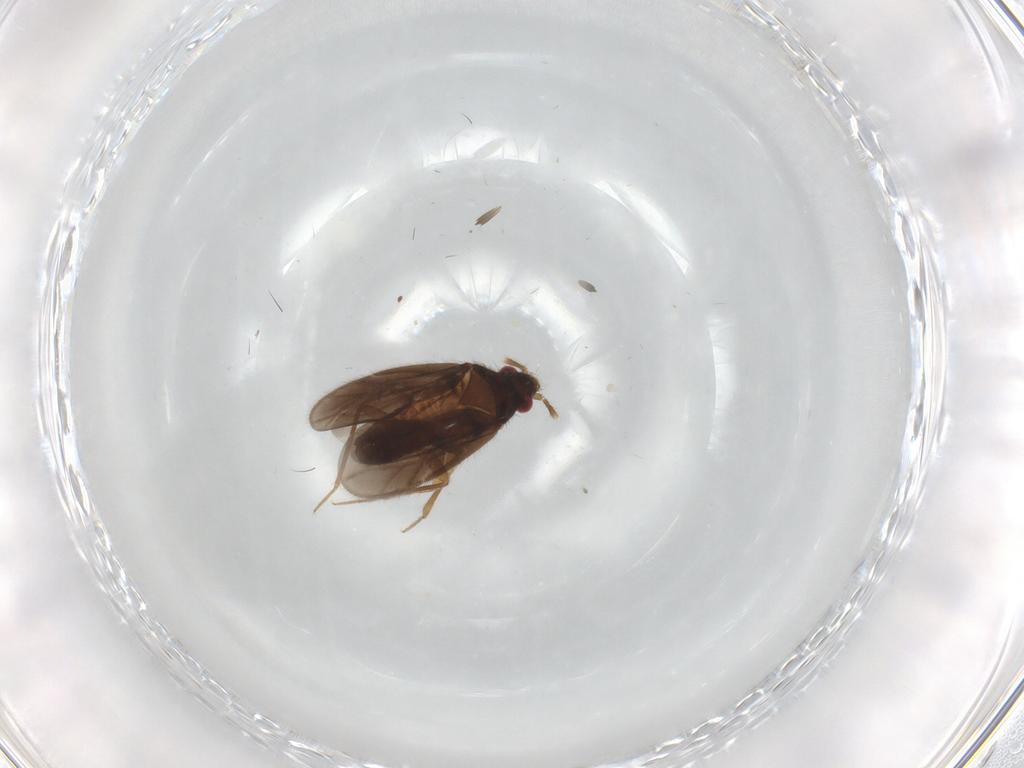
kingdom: Animalia
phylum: Arthropoda
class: Insecta
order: Hemiptera
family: Ceratocombidae
